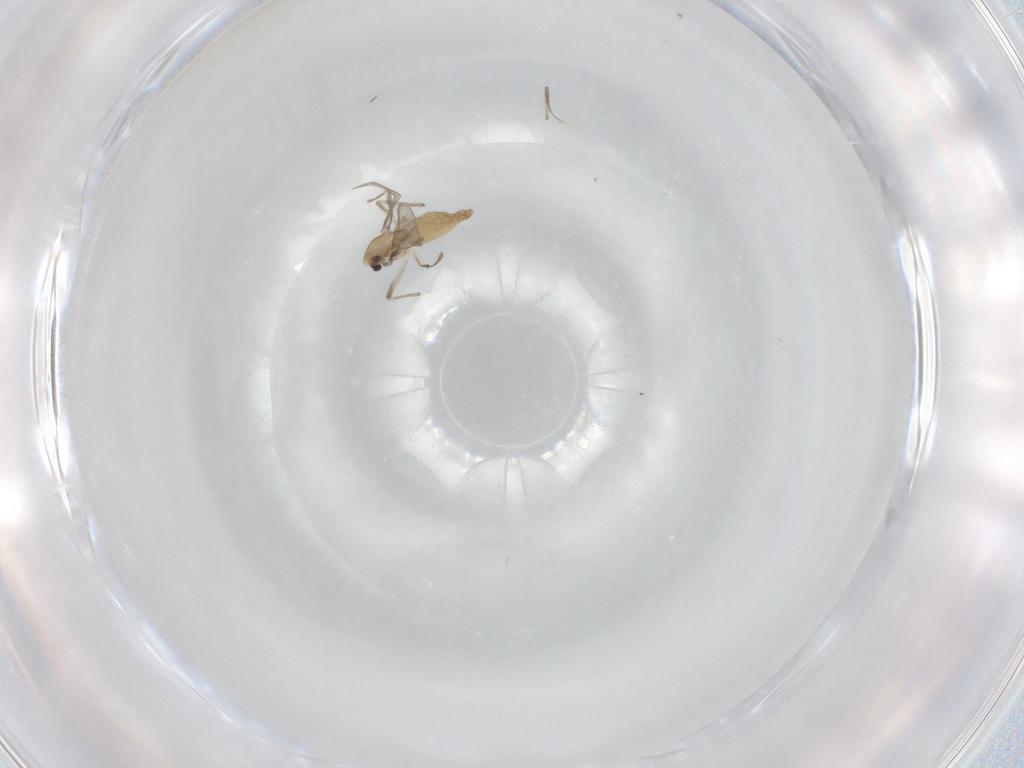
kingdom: Animalia
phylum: Arthropoda
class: Insecta
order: Diptera
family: Chironomidae
